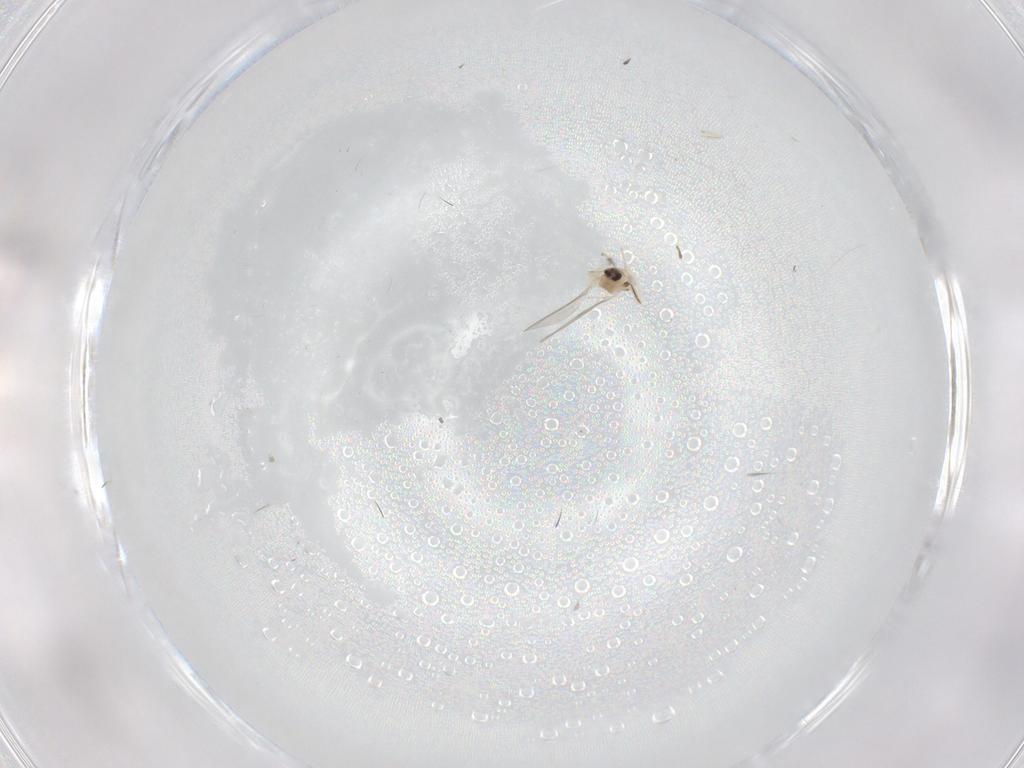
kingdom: Animalia
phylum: Arthropoda
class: Insecta
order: Diptera
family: Cecidomyiidae
